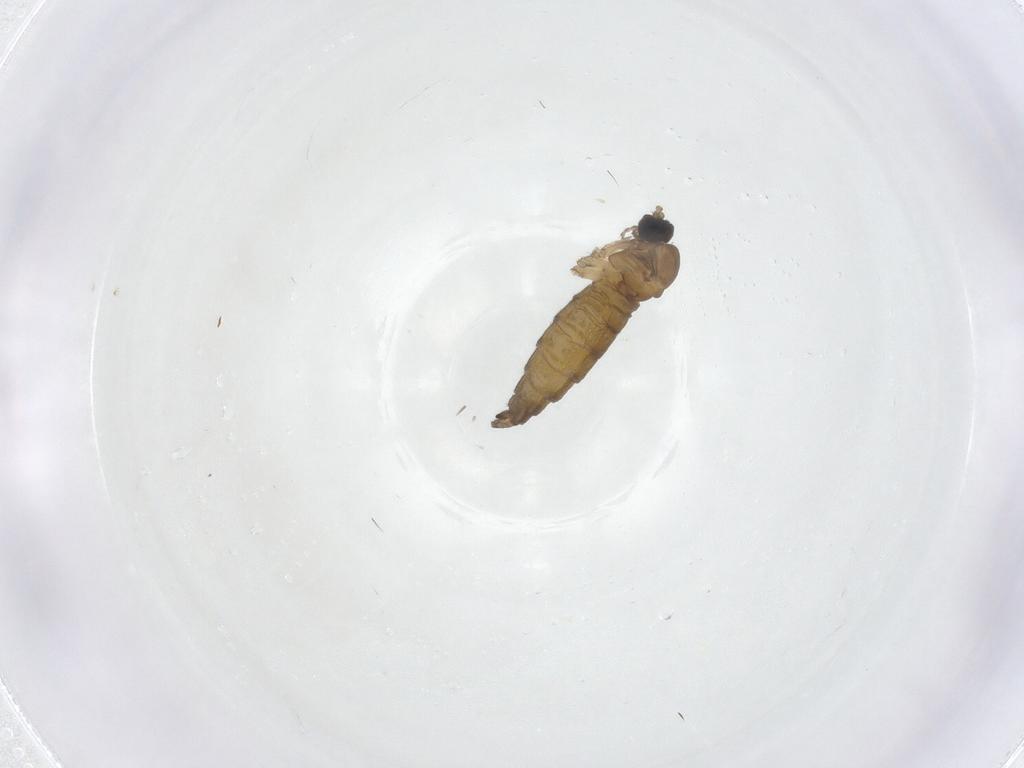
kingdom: Animalia
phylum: Arthropoda
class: Insecta
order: Diptera
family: Sciaridae
